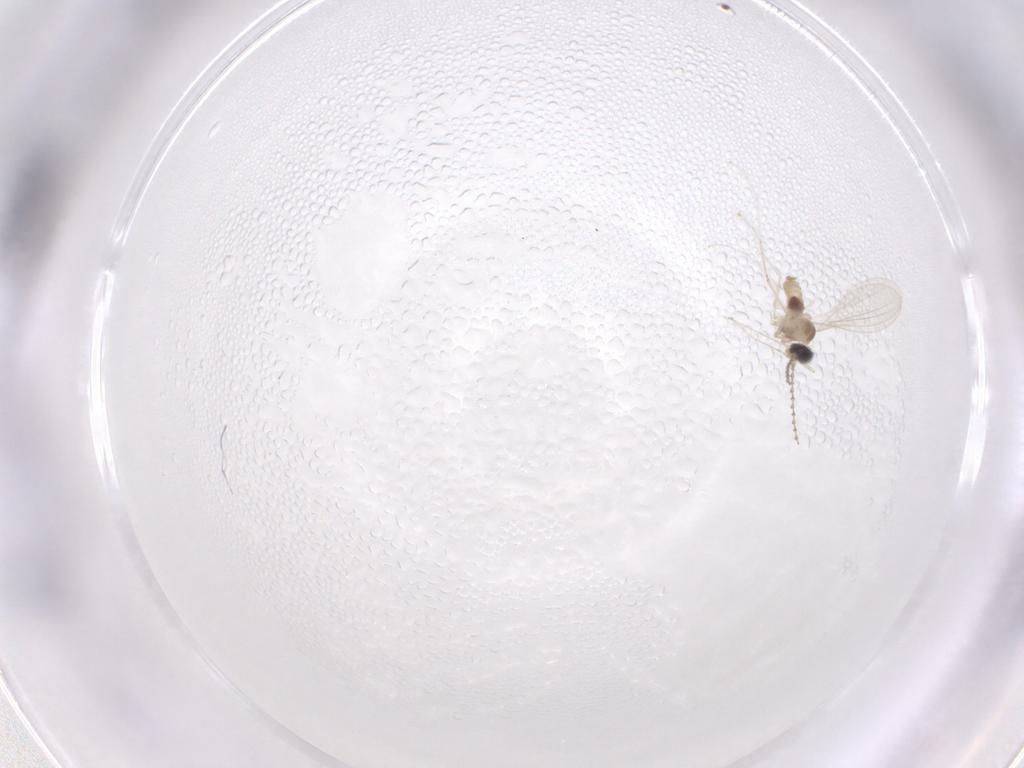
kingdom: Animalia
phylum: Arthropoda
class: Insecta
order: Diptera
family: Cecidomyiidae
